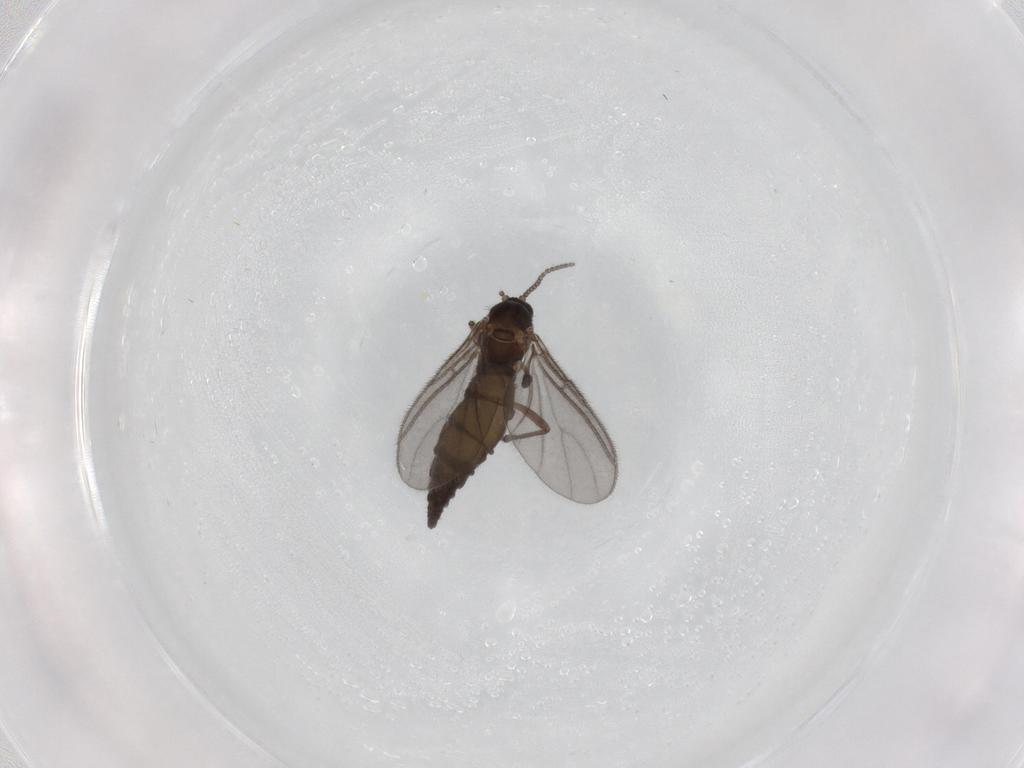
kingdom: Animalia
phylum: Arthropoda
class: Insecta
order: Diptera
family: Sciaridae
